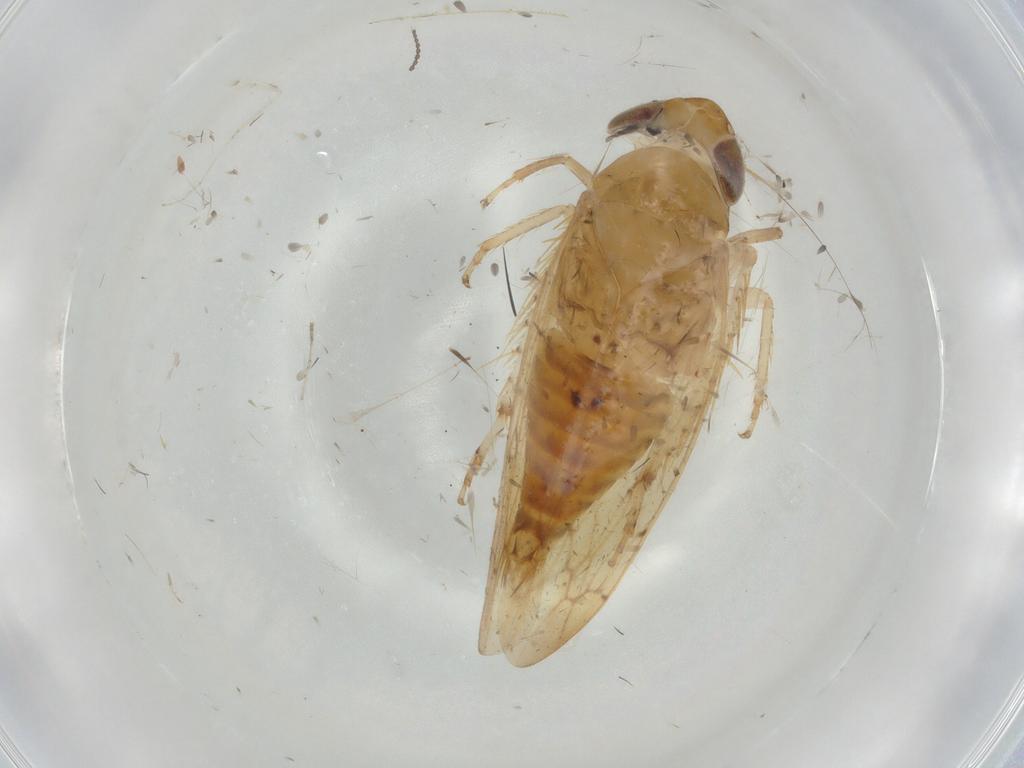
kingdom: Animalia
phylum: Arthropoda
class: Insecta
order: Hemiptera
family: Cicadellidae
